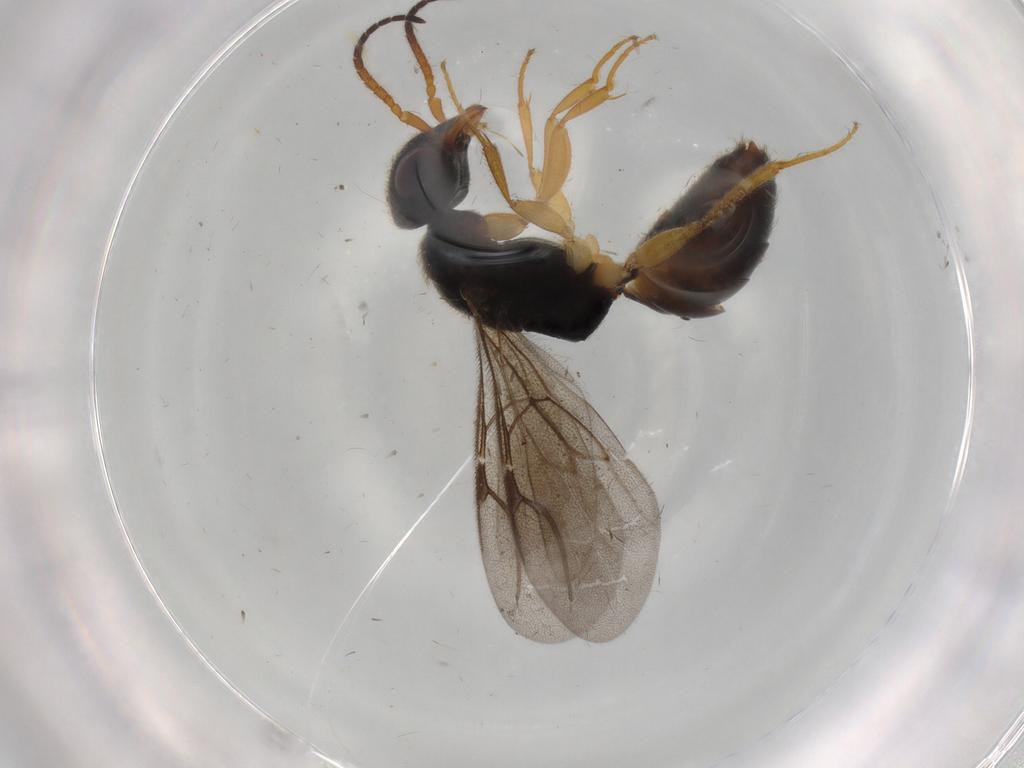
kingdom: Animalia
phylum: Arthropoda
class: Insecta
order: Hymenoptera
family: Bethylidae
